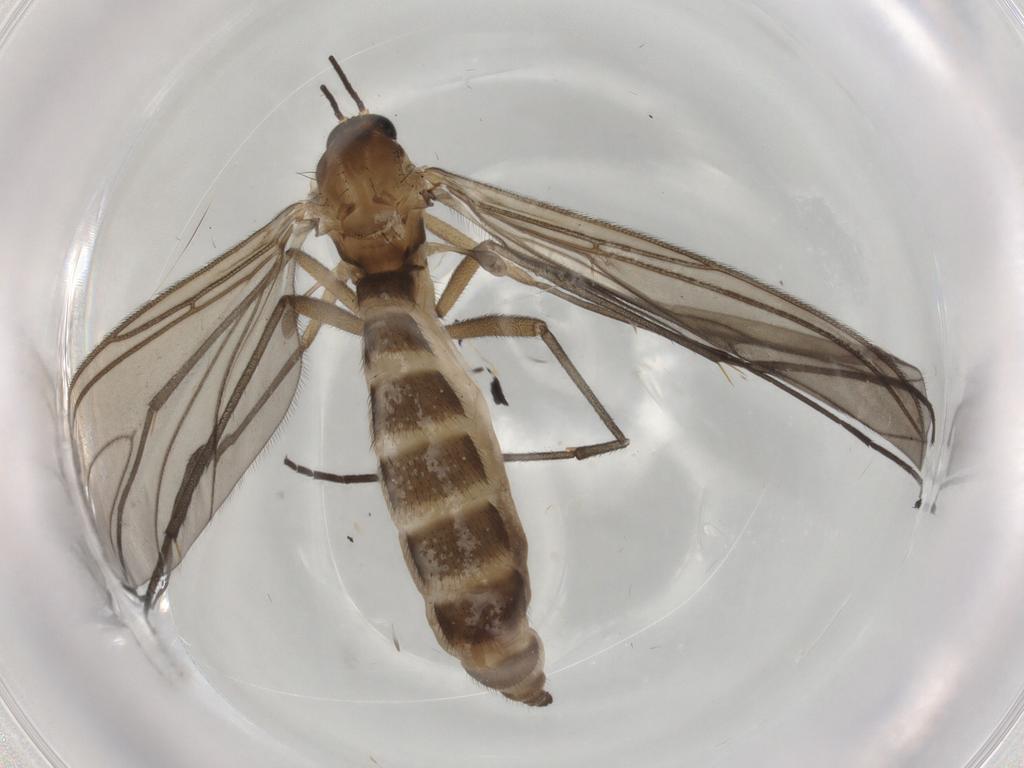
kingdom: Animalia
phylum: Arthropoda
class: Insecta
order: Diptera
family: Sciaridae
